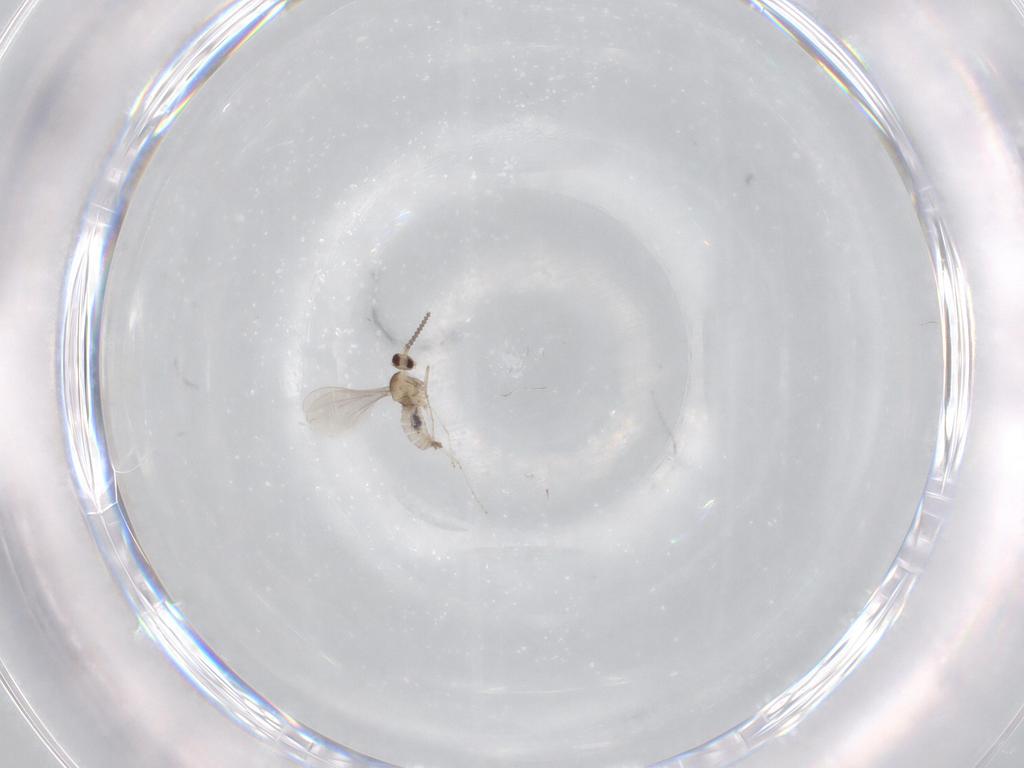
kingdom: Animalia
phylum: Arthropoda
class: Insecta
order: Diptera
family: Cecidomyiidae
